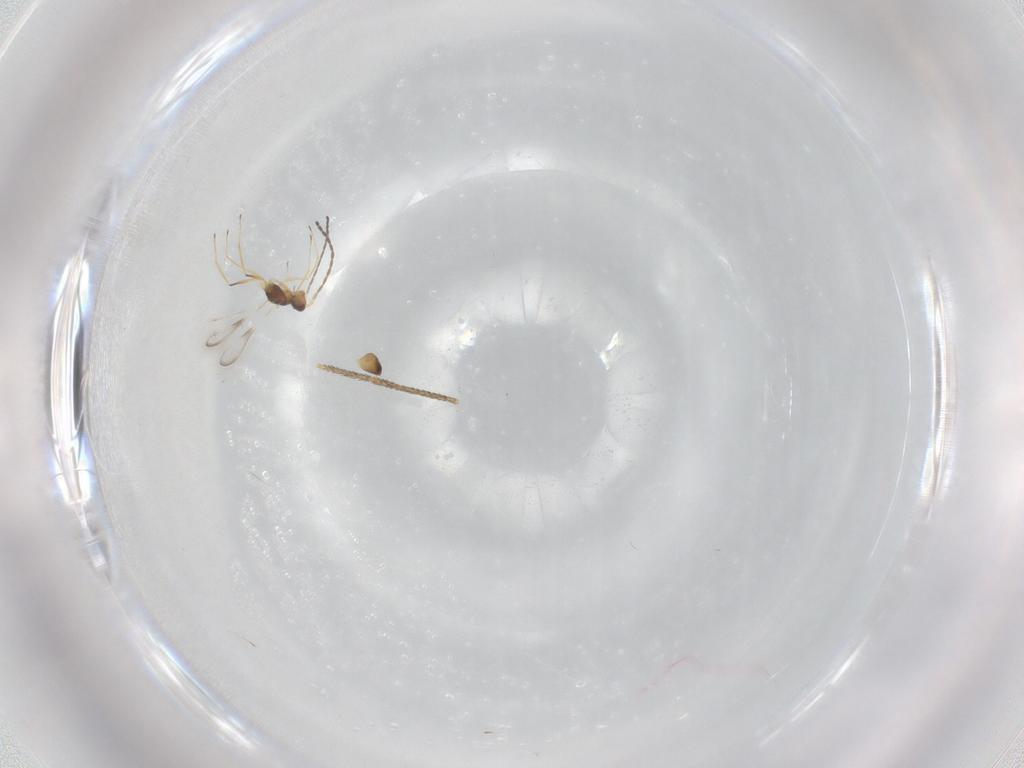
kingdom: Animalia
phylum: Arthropoda
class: Insecta
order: Hymenoptera
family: Mymaridae
